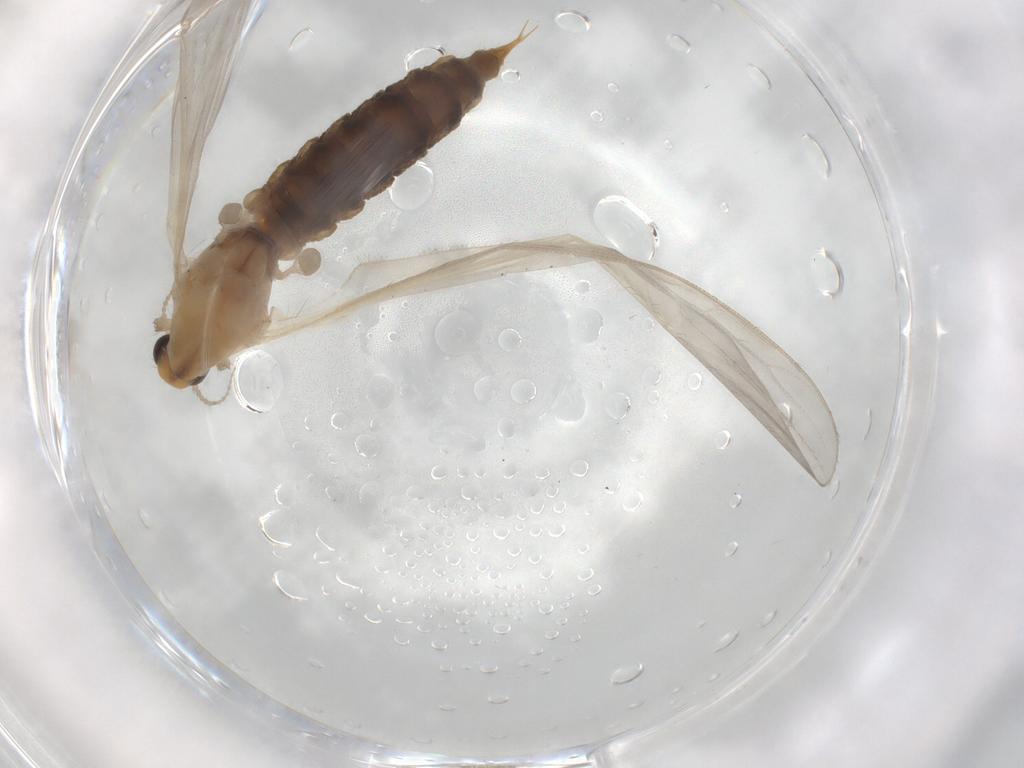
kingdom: Animalia
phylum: Arthropoda
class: Insecta
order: Diptera
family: Limoniidae
